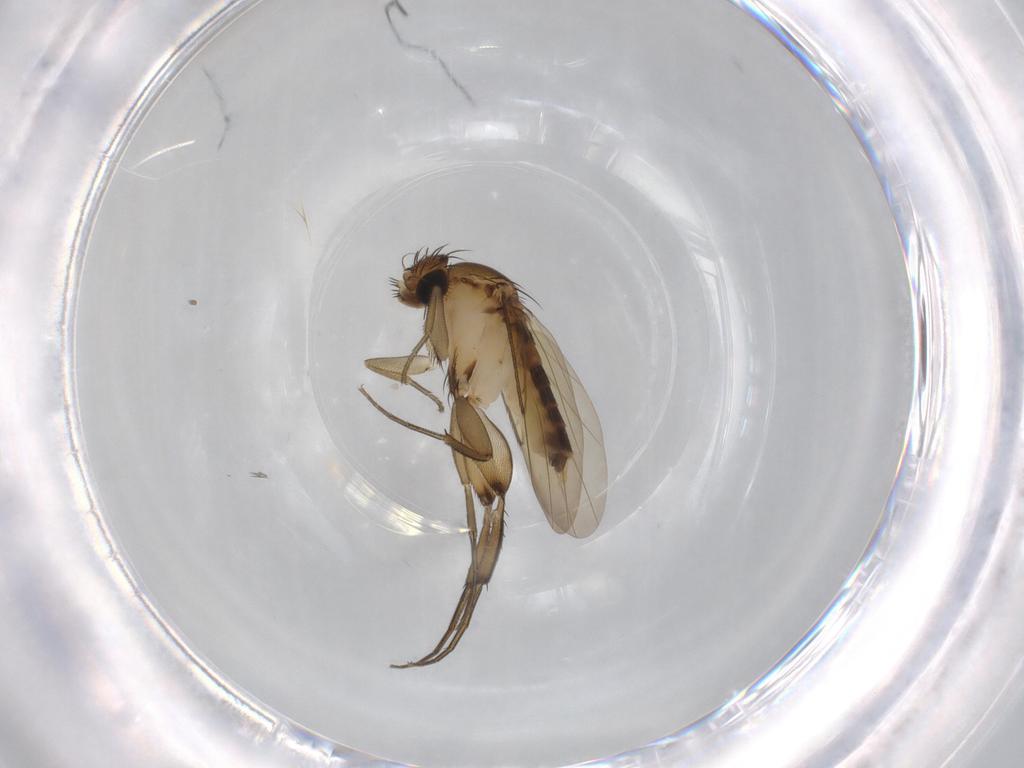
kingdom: Animalia
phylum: Arthropoda
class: Insecta
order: Diptera
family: Phoridae
